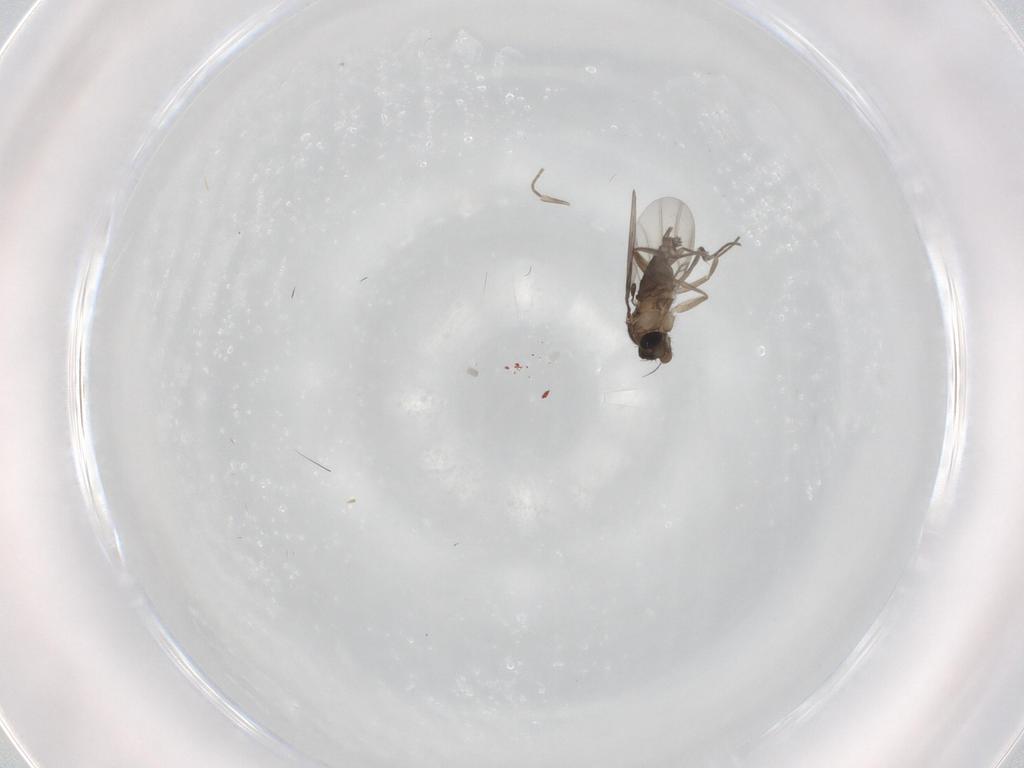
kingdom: Animalia
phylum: Arthropoda
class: Insecta
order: Diptera
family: Phoridae
